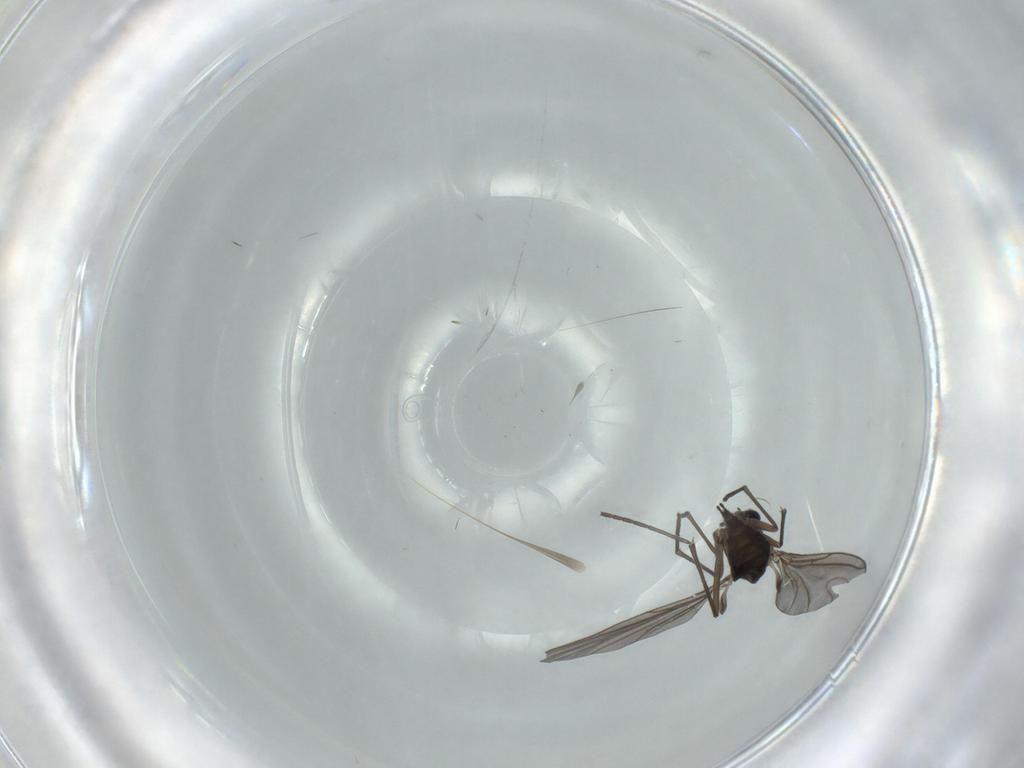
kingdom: Animalia
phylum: Arthropoda
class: Insecta
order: Diptera
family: Sciaridae
